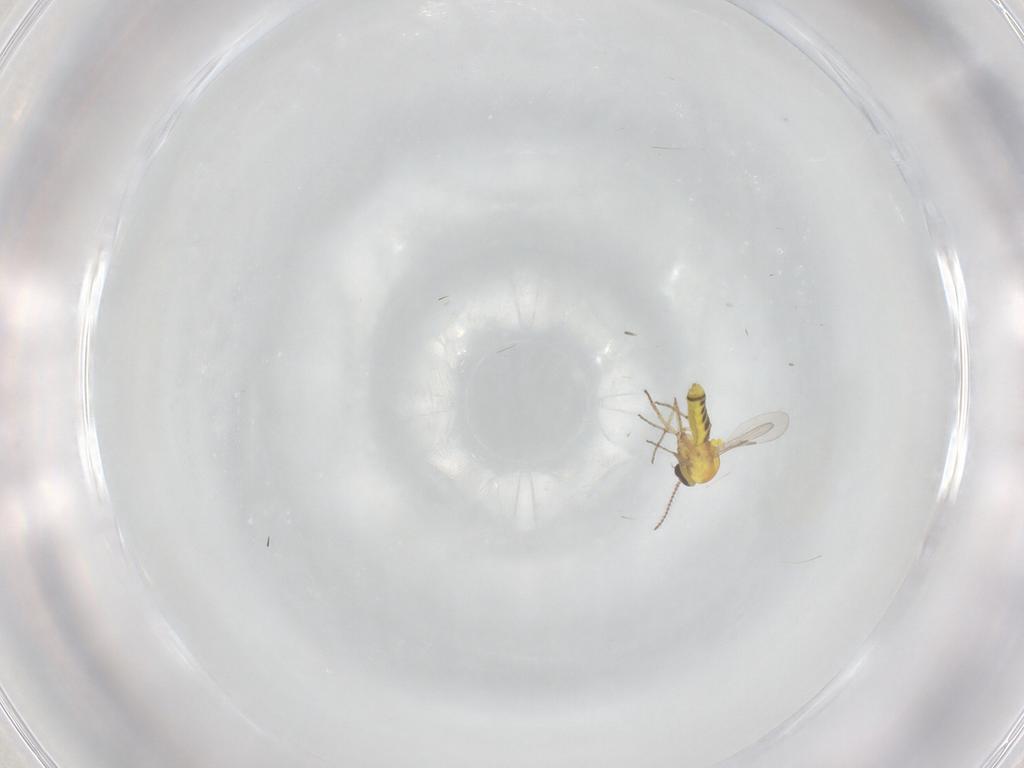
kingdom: Animalia
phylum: Arthropoda
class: Insecta
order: Diptera
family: Ceratopogonidae
